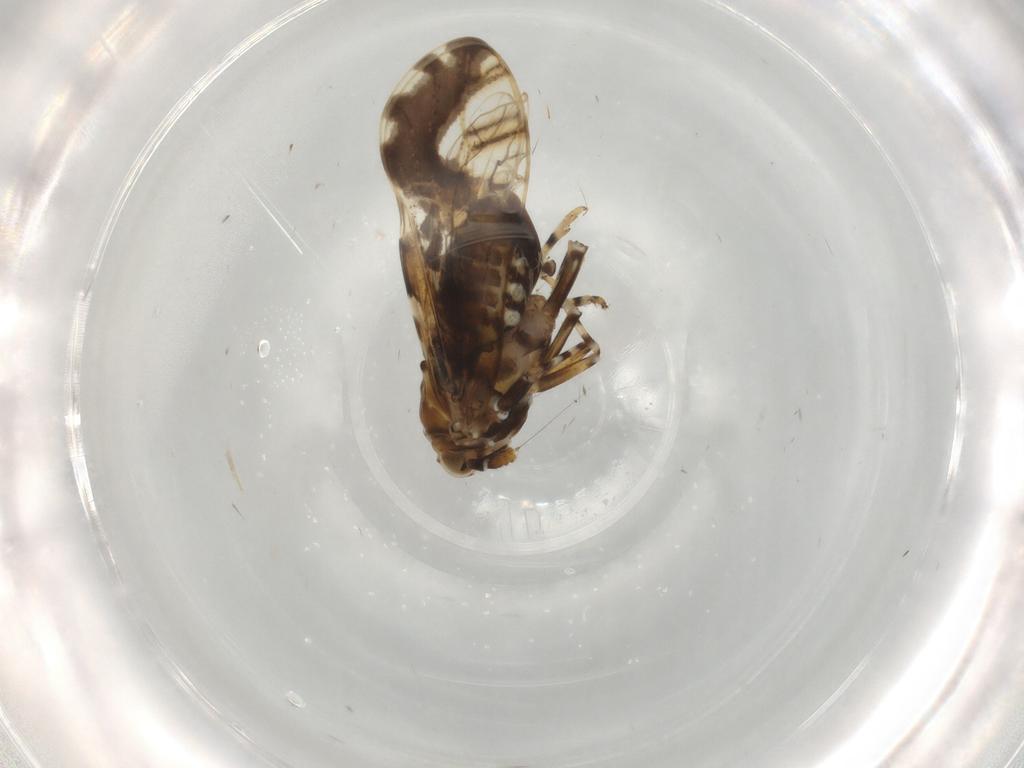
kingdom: Animalia
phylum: Arthropoda
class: Insecta
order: Hemiptera
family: Delphacidae
